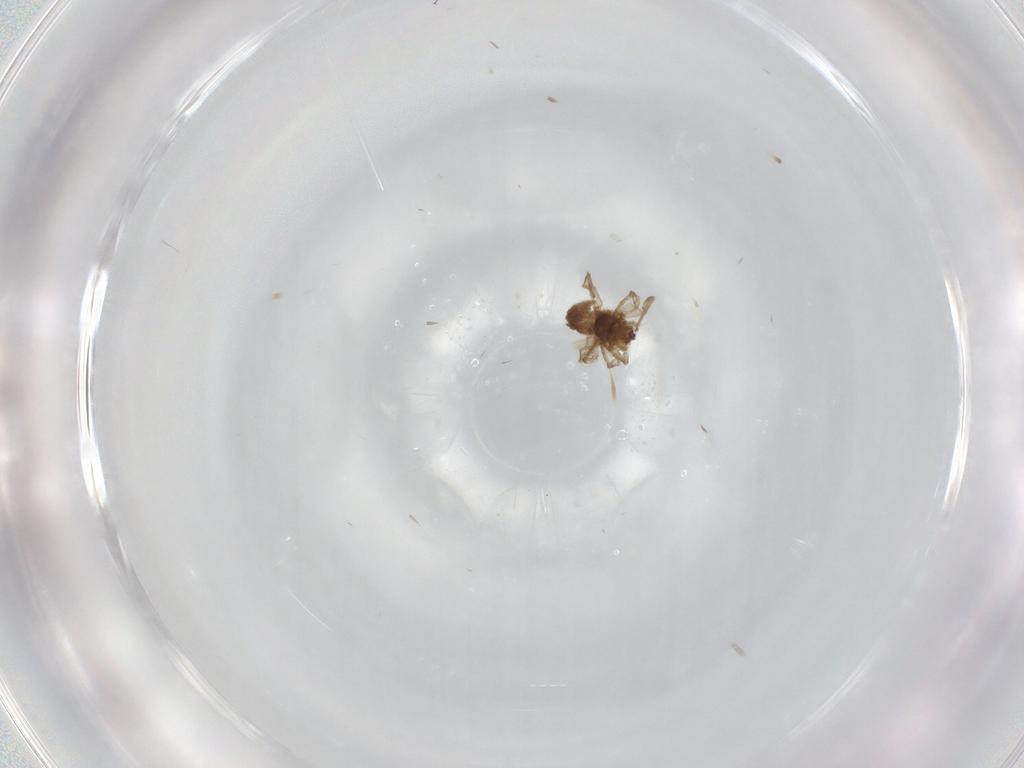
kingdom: Animalia
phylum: Arthropoda
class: Arachnida
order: Araneae
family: Dictynidae
